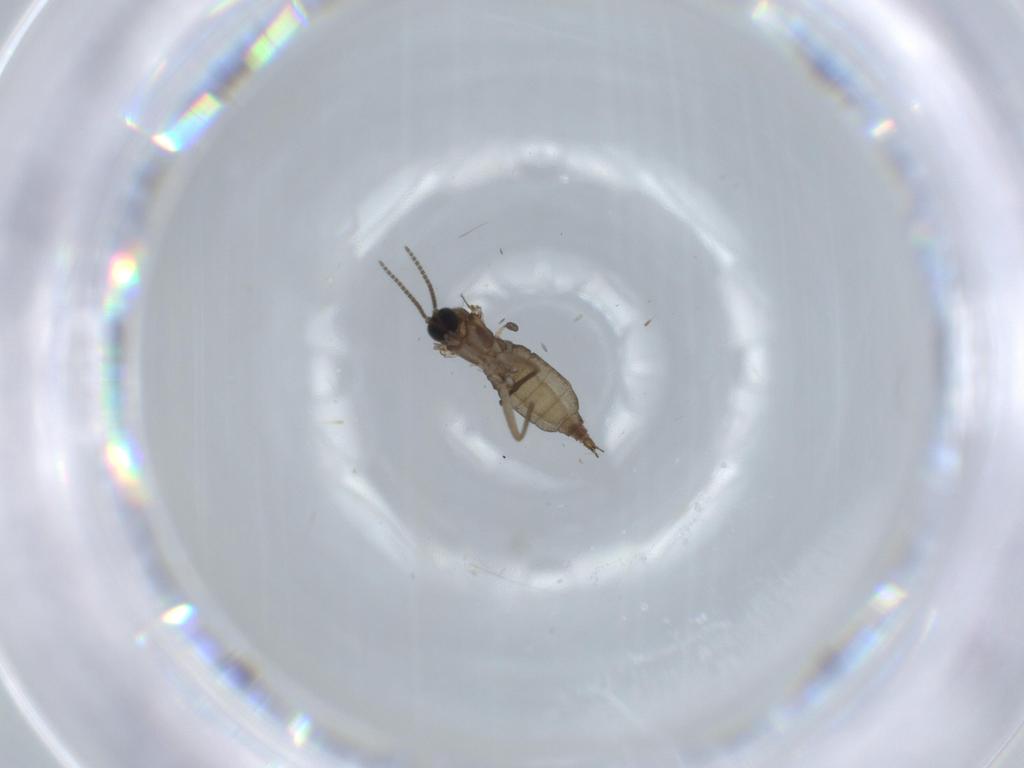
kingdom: Animalia
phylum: Arthropoda
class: Insecta
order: Diptera
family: Sciaridae
